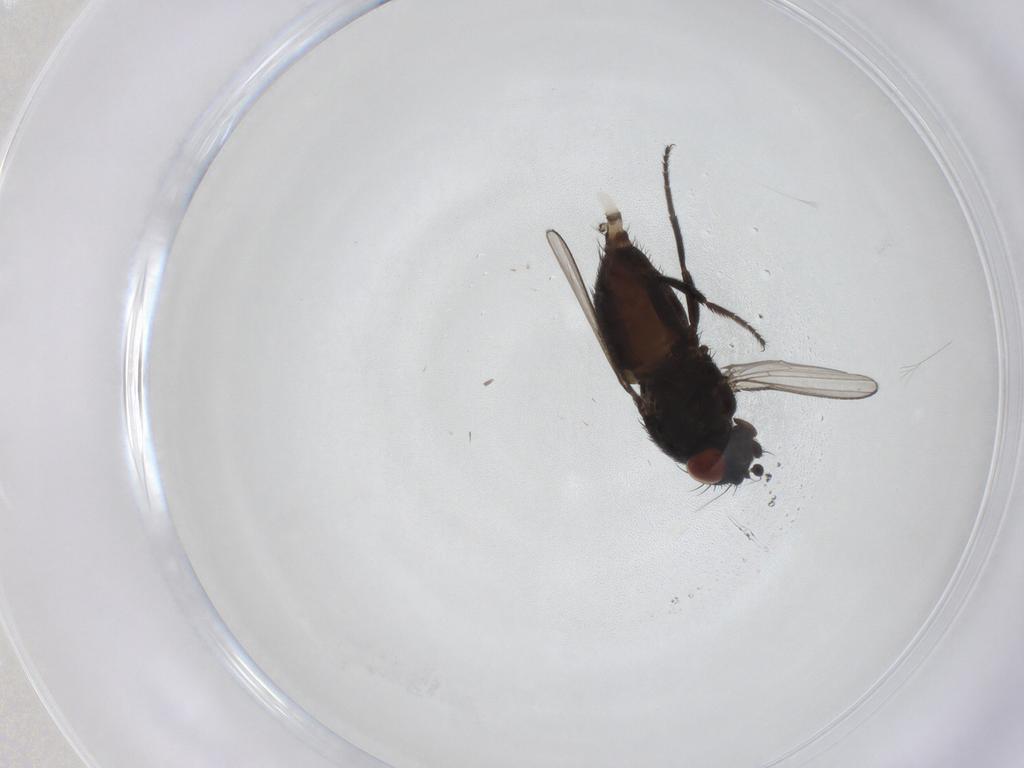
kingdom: Animalia
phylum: Arthropoda
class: Insecta
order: Diptera
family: Milichiidae
